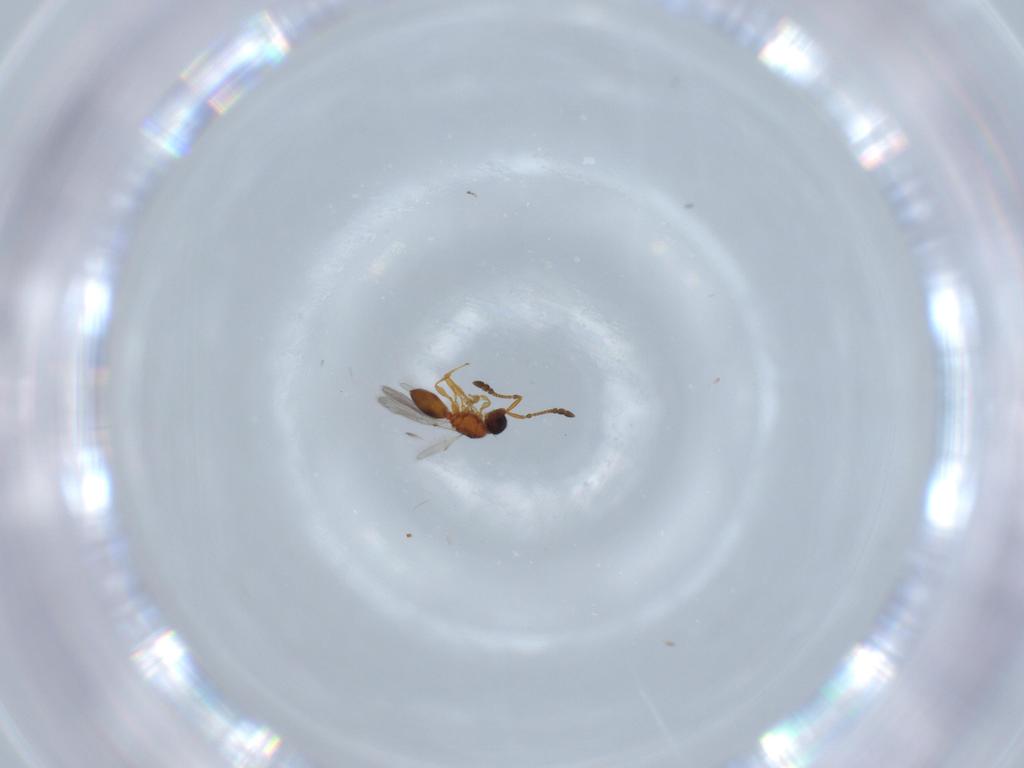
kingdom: Animalia
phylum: Arthropoda
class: Insecta
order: Hymenoptera
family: Diapriidae
